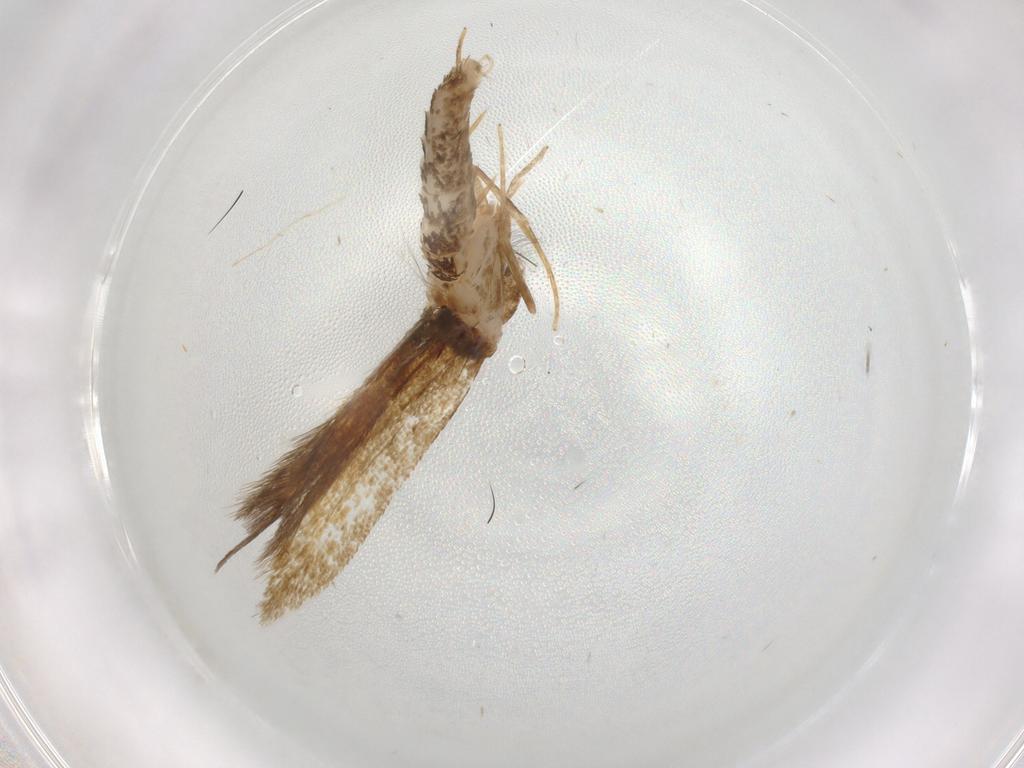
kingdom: Animalia
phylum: Arthropoda
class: Insecta
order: Lepidoptera
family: Tineidae
